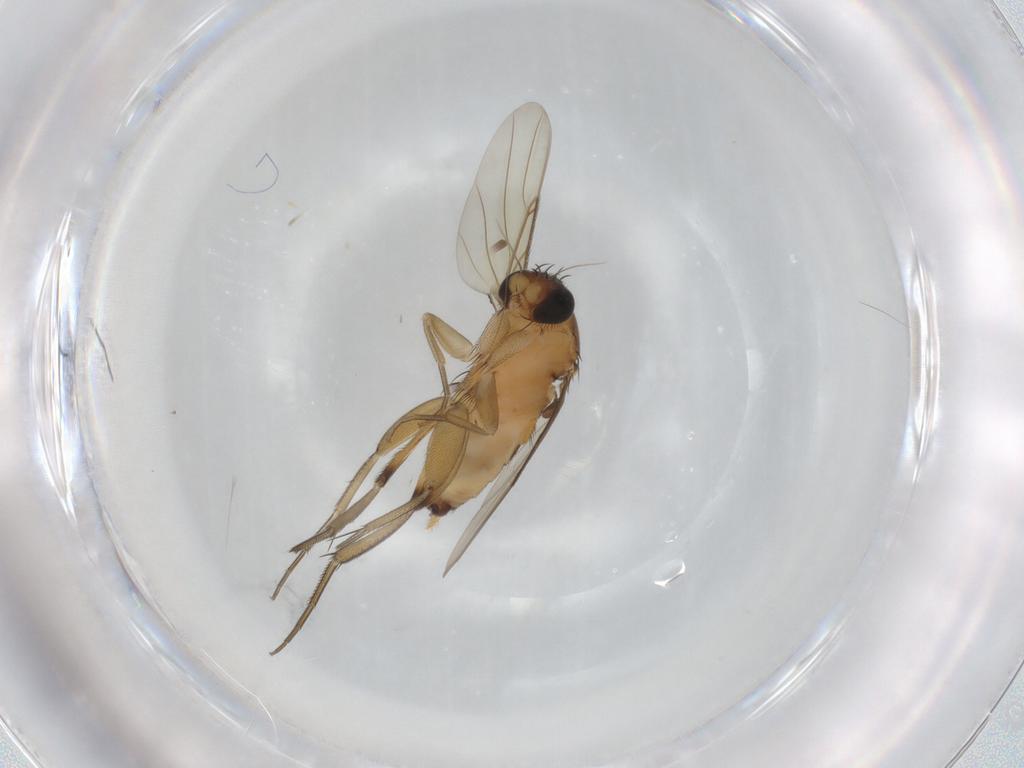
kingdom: Animalia
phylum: Arthropoda
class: Insecta
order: Diptera
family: Phoridae
